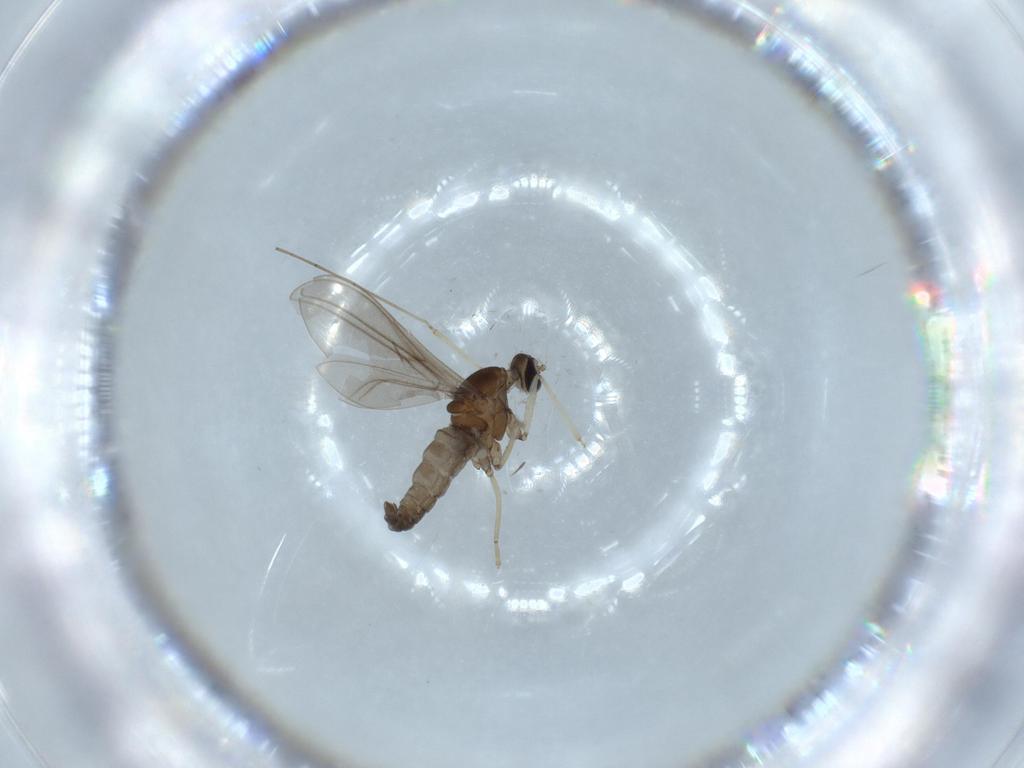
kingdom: Animalia
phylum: Arthropoda
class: Insecta
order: Diptera
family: Cecidomyiidae
